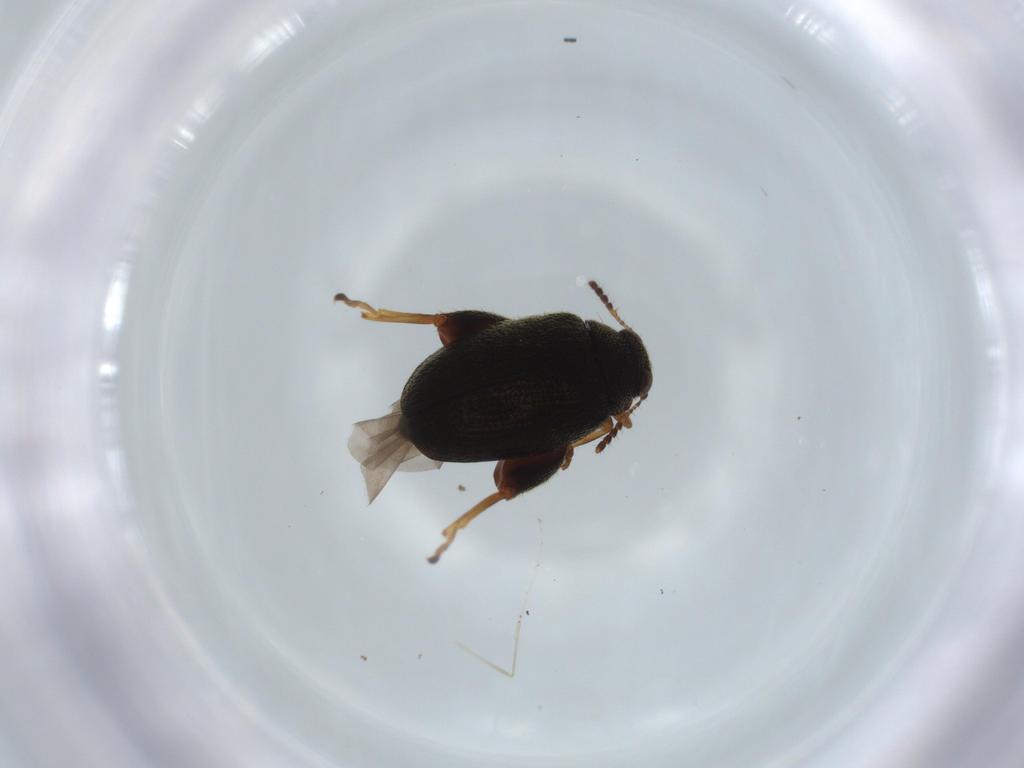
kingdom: Animalia
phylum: Arthropoda
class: Insecta
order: Coleoptera
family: Chrysomelidae
